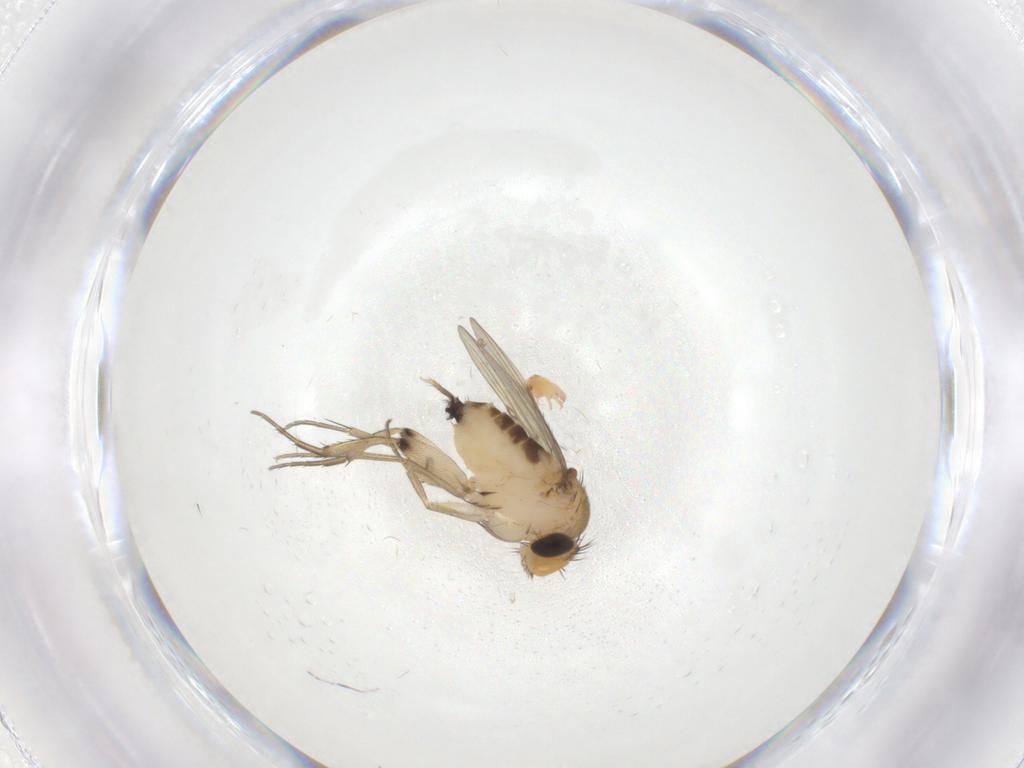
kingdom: Animalia
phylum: Arthropoda
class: Insecta
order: Diptera
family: Phoridae
